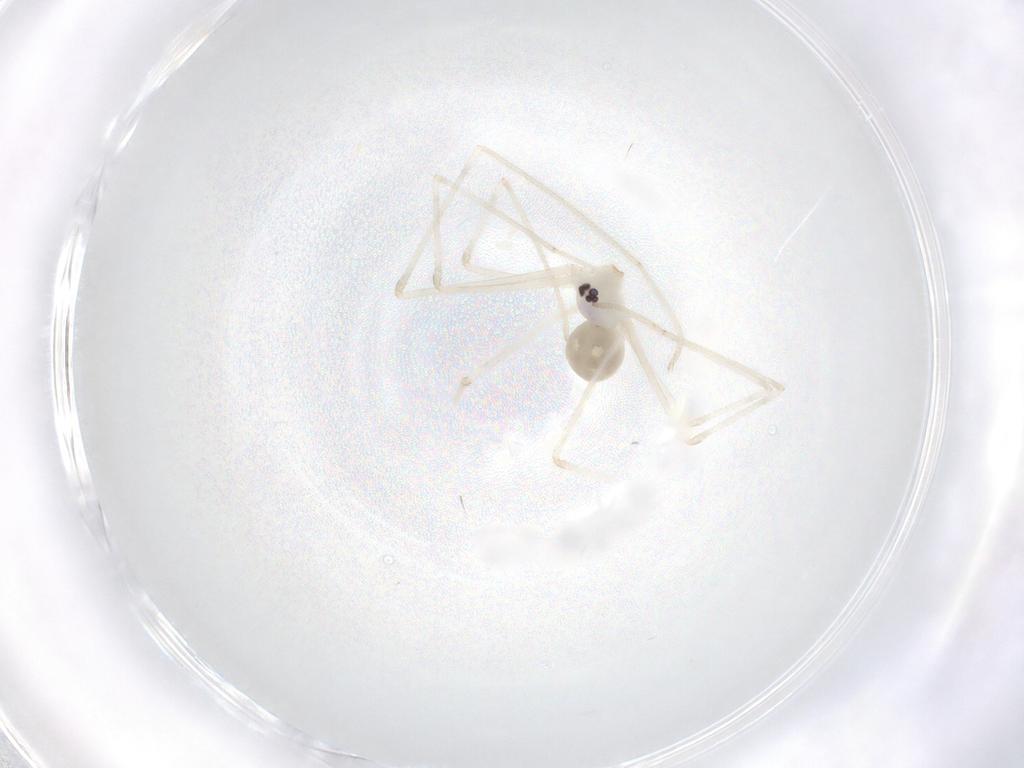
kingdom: Animalia
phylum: Arthropoda
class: Arachnida
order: Araneae
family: Pholcidae
